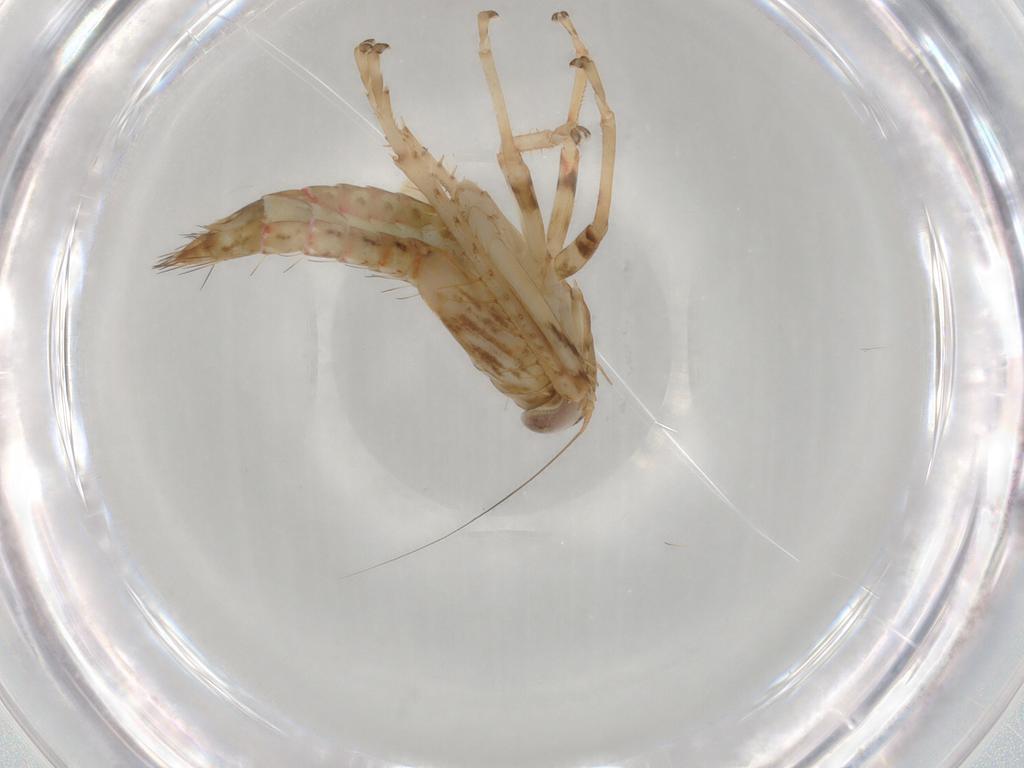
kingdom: Animalia
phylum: Arthropoda
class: Insecta
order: Hemiptera
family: Cicadellidae
